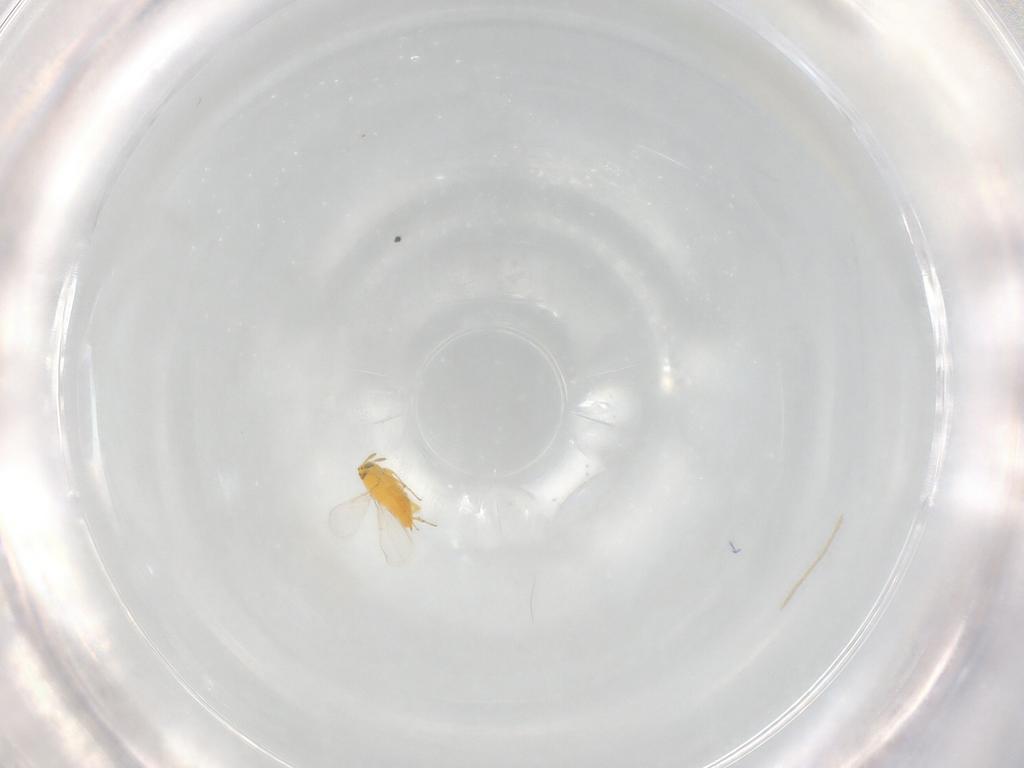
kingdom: Animalia
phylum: Arthropoda
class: Insecta
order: Hymenoptera
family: Aphelinidae
